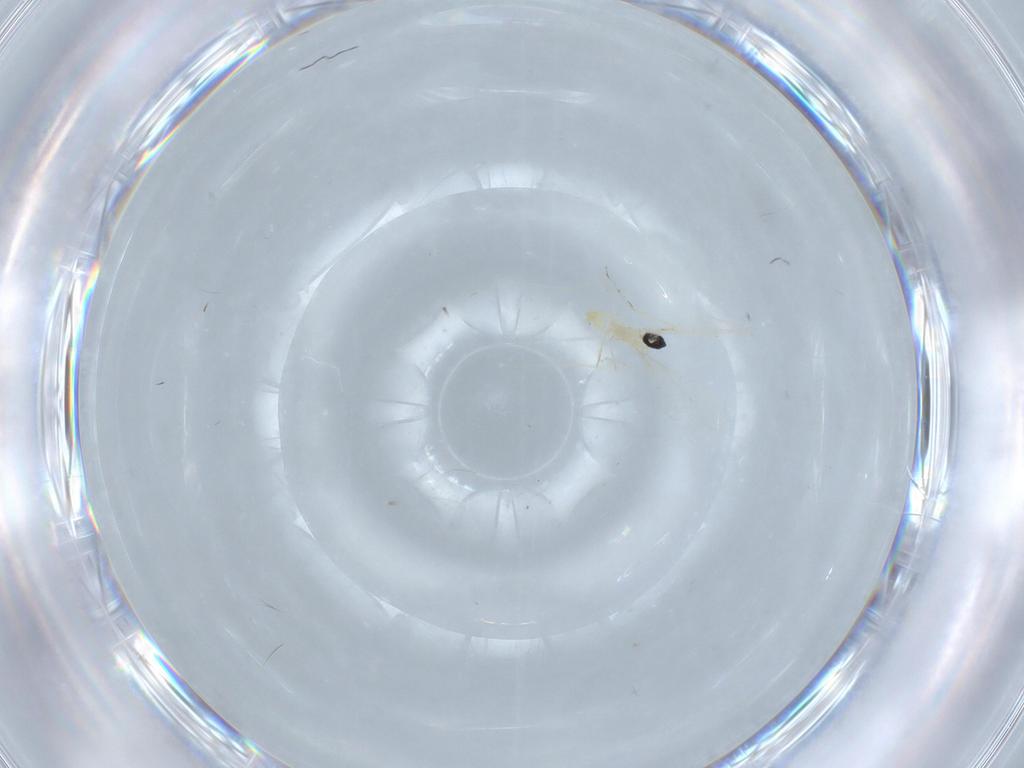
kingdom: Animalia
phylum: Arthropoda
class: Insecta
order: Diptera
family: Cecidomyiidae
